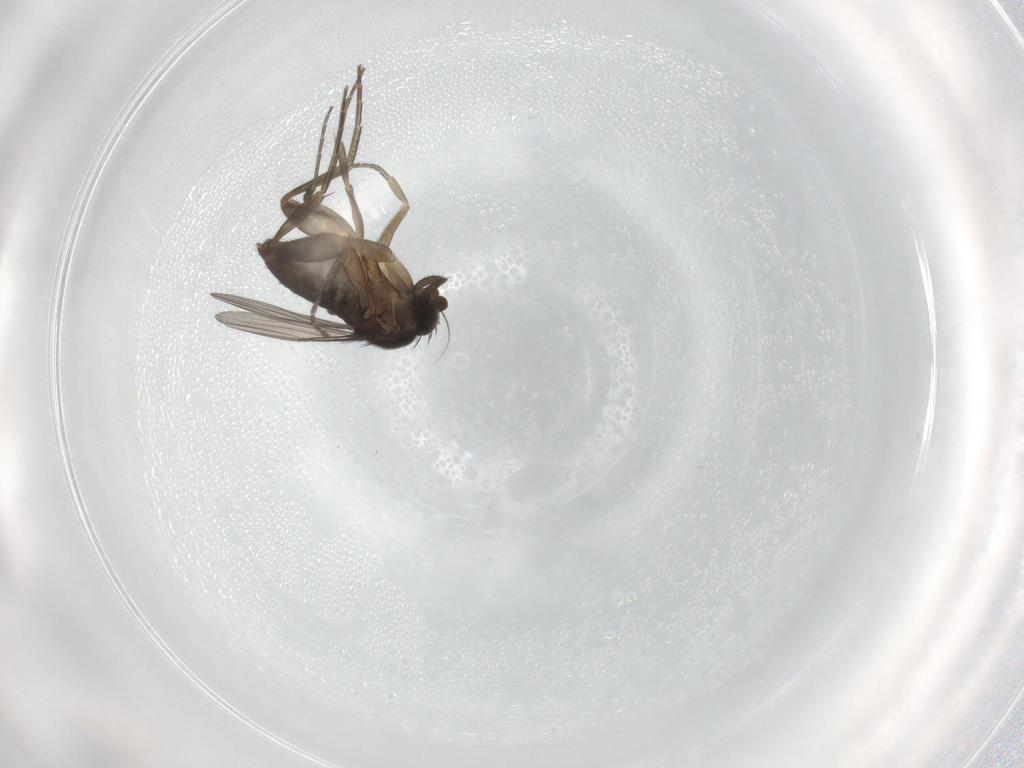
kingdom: Animalia
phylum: Arthropoda
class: Insecta
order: Diptera
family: Phoridae
